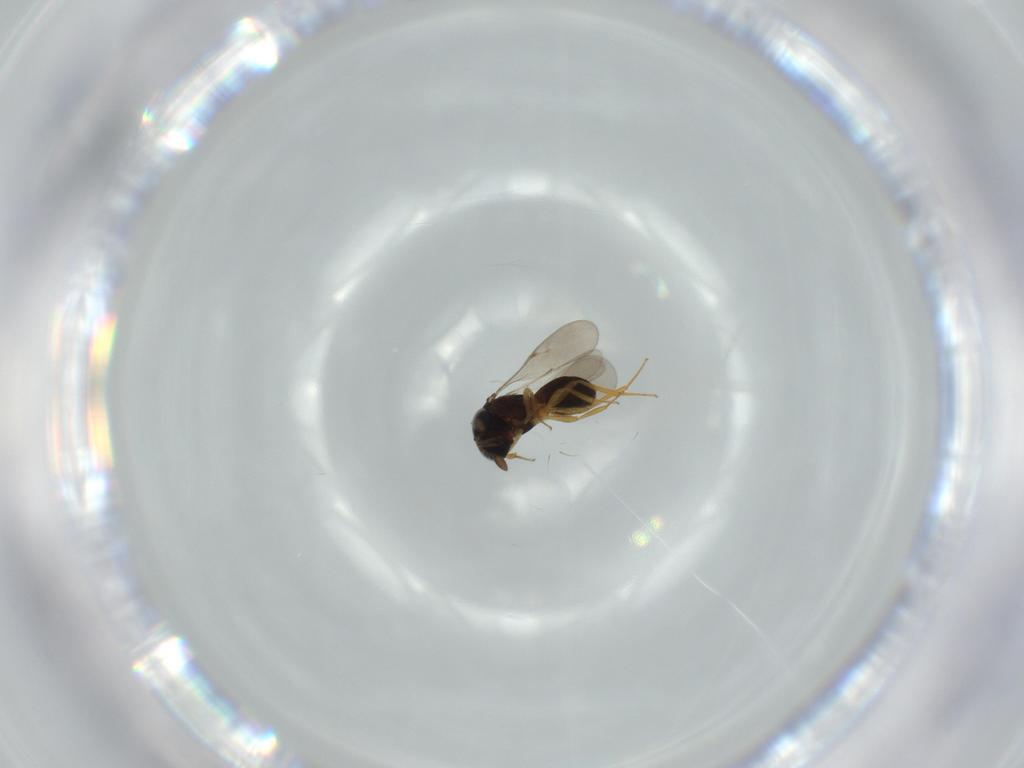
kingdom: Animalia
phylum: Arthropoda
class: Insecta
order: Hymenoptera
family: Scelionidae
